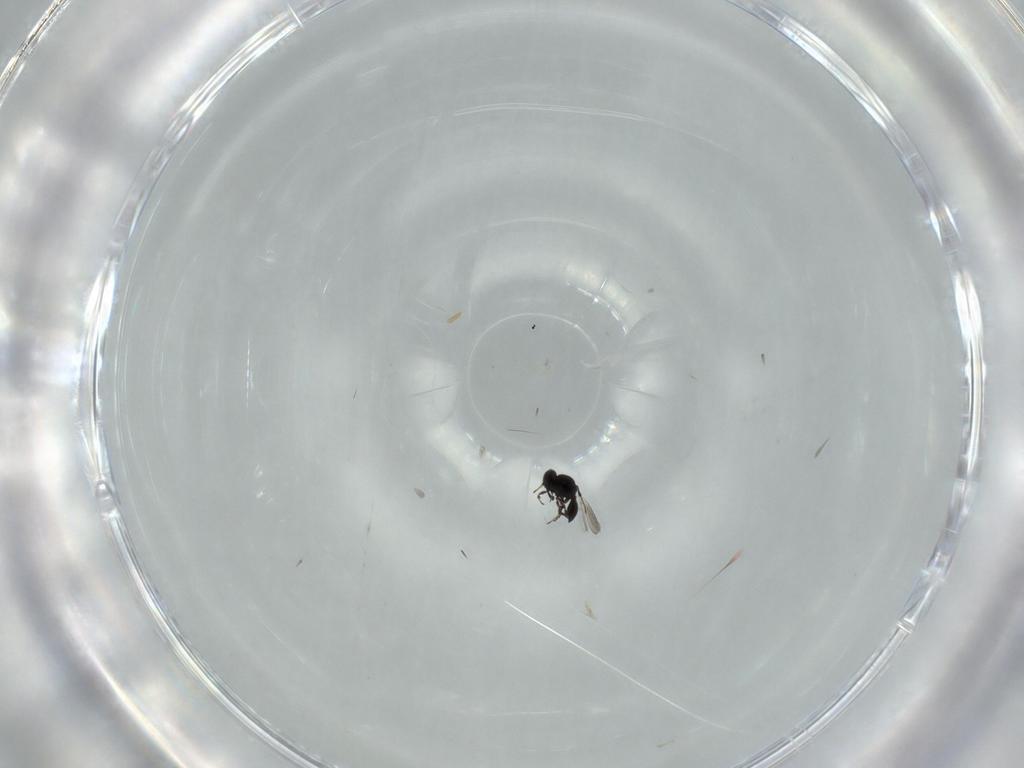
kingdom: Animalia
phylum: Arthropoda
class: Insecta
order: Hymenoptera
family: Platygastridae
